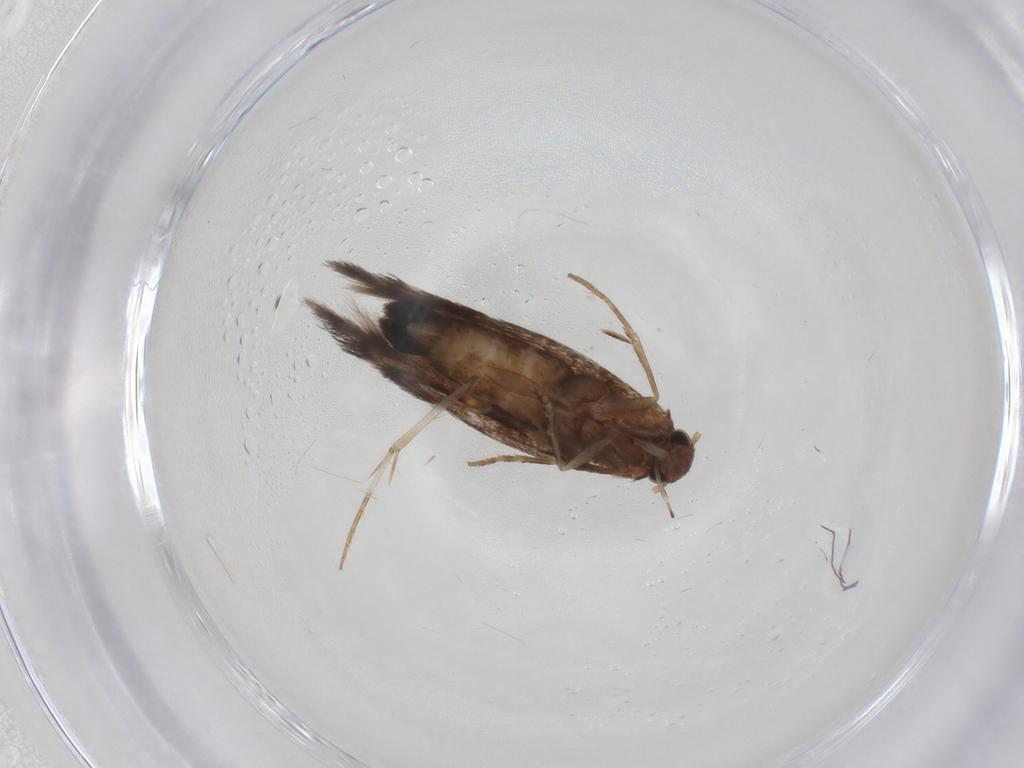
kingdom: Animalia
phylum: Arthropoda
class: Insecta
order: Lepidoptera
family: Elachistidae
